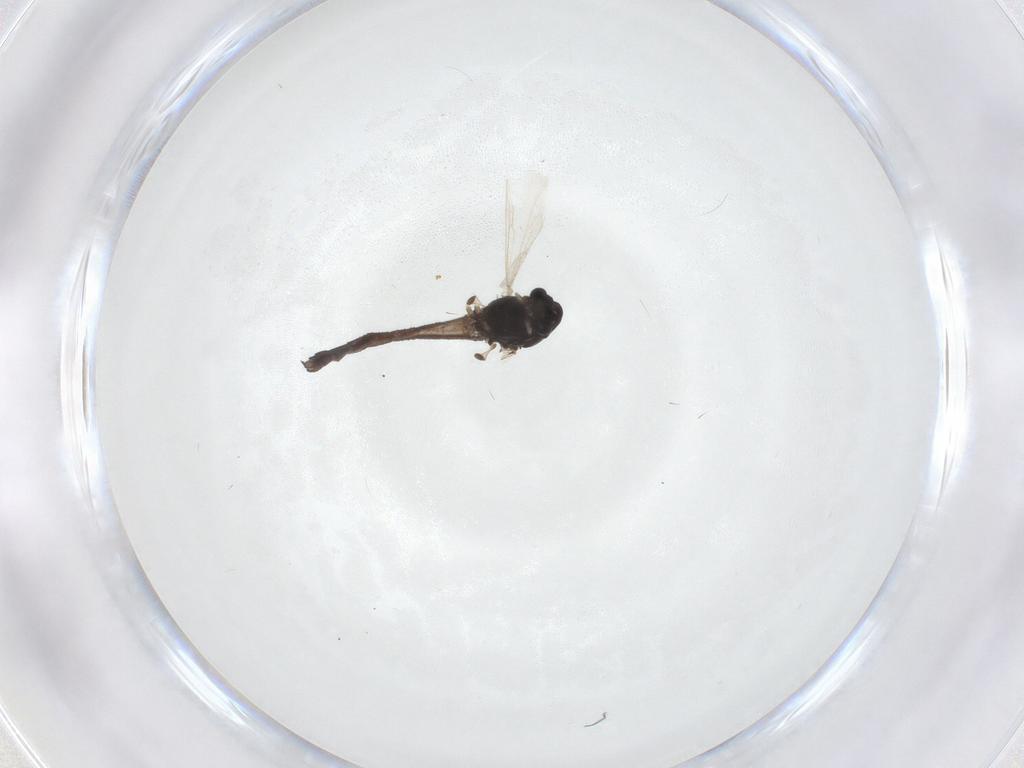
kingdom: Animalia
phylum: Arthropoda
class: Insecta
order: Diptera
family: Chironomidae
